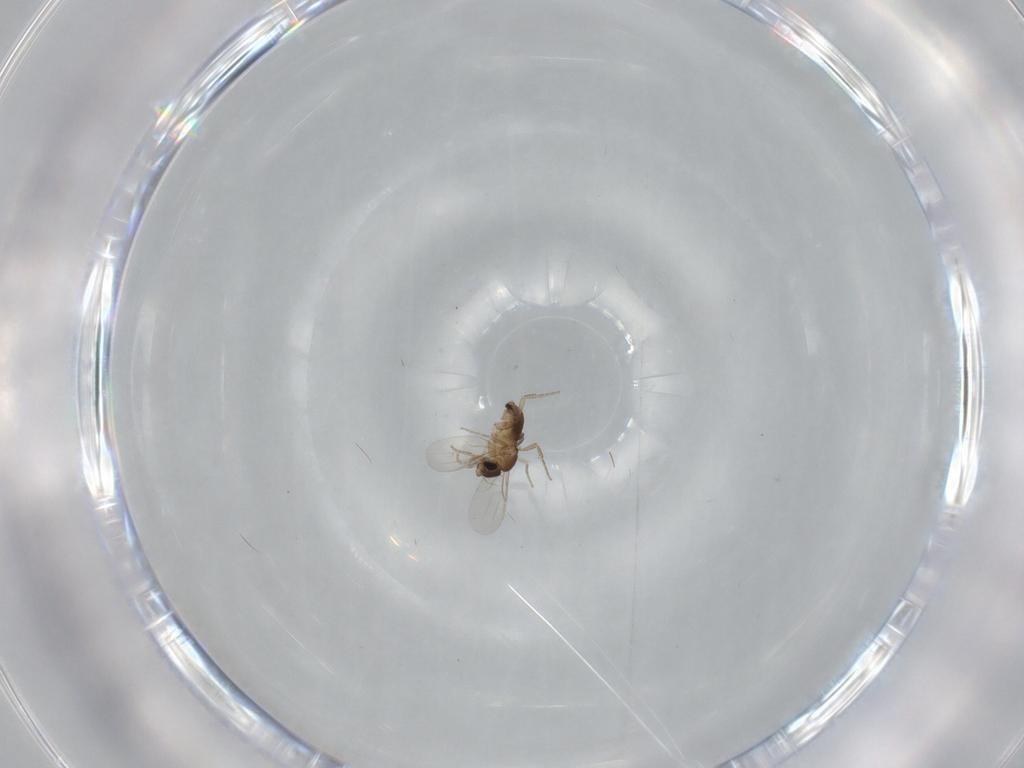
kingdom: Animalia
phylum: Arthropoda
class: Insecta
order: Diptera
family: Phoridae
